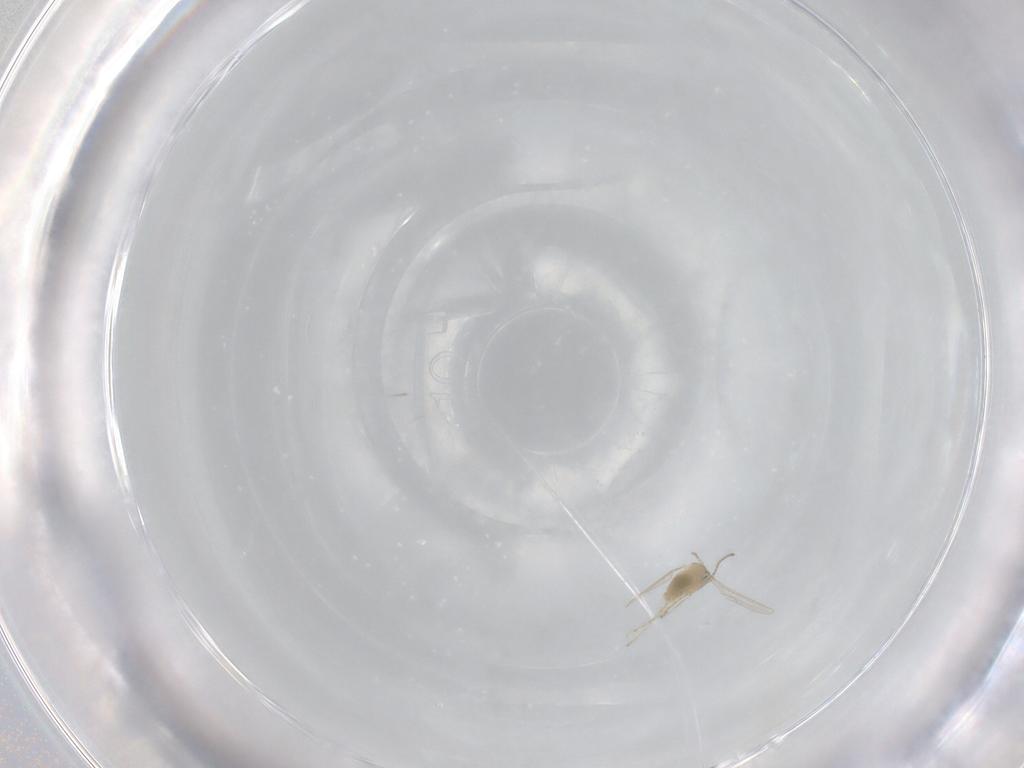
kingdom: Animalia
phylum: Arthropoda
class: Insecta
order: Diptera
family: Cecidomyiidae
